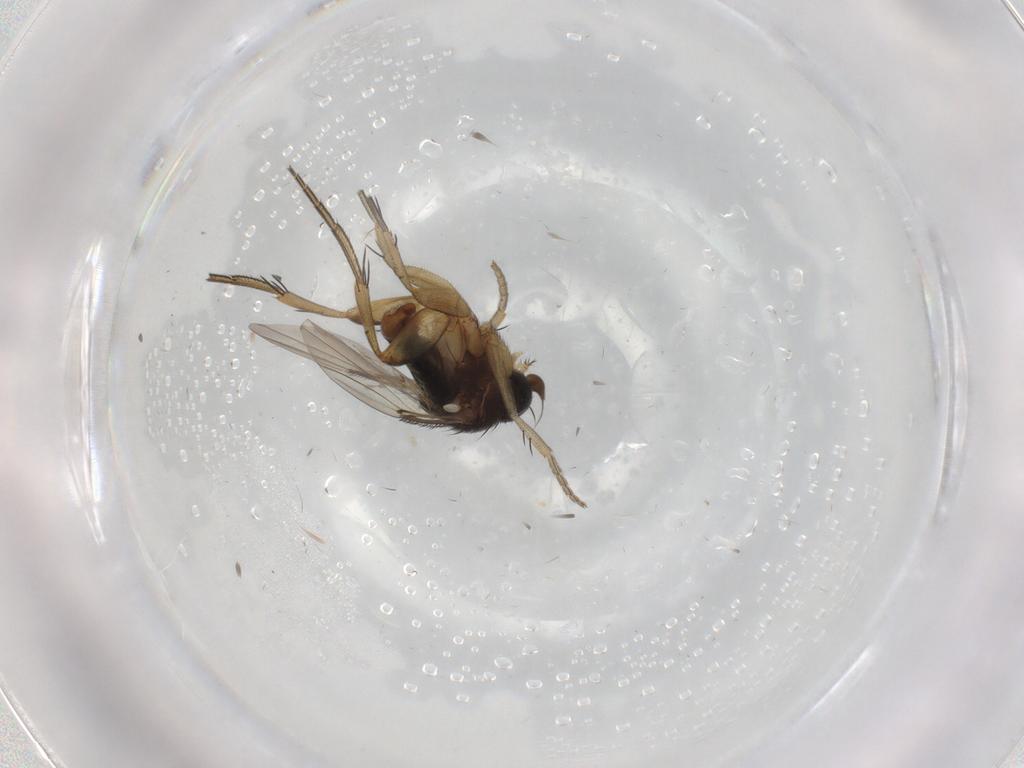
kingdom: Animalia
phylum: Arthropoda
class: Insecta
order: Diptera
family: Phoridae
